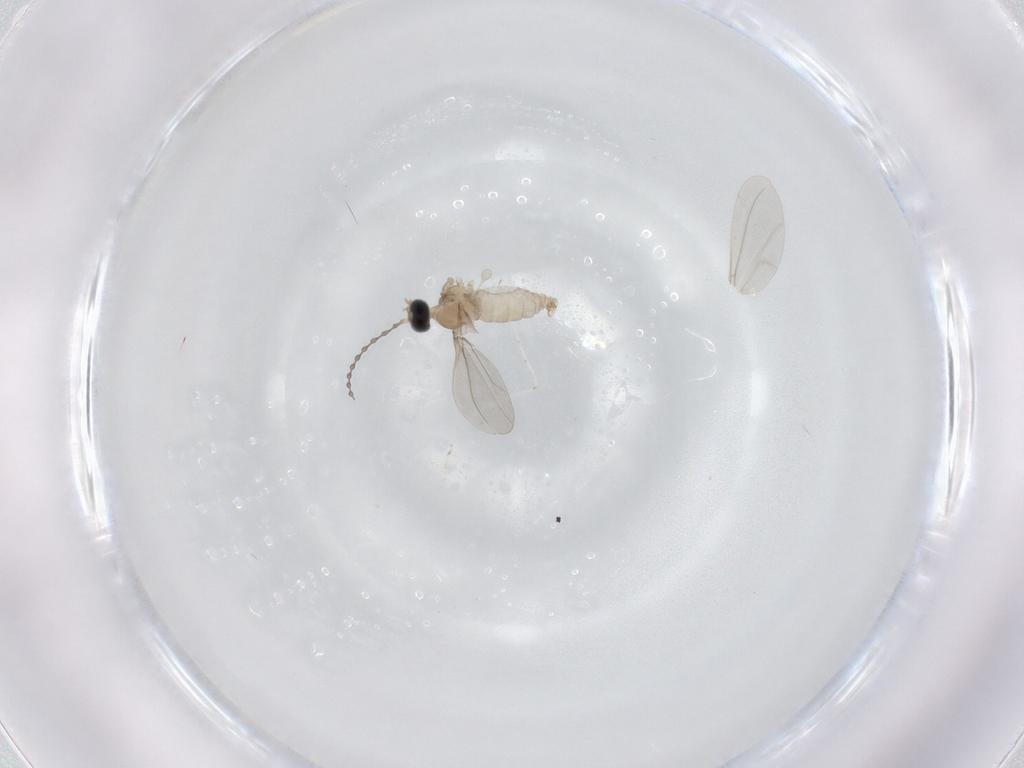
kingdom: Animalia
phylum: Arthropoda
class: Insecta
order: Diptera
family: Cecidomyiidae
